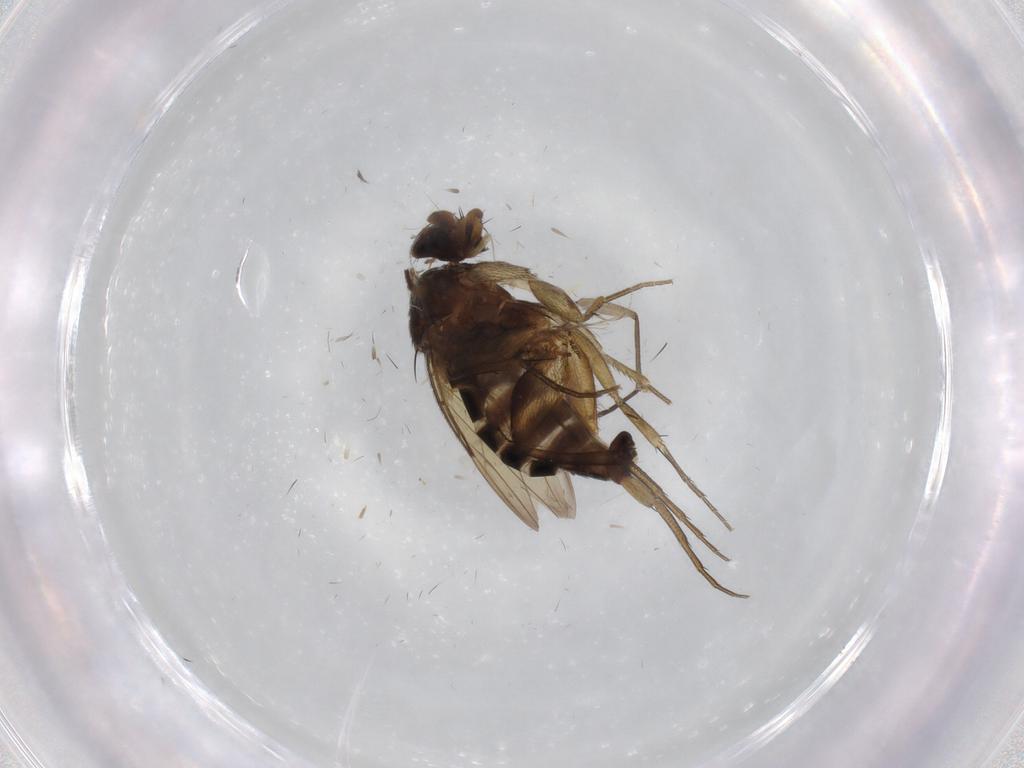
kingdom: Animalia
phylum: Arthropoda
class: Insecta
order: Diptera
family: Phoridae
